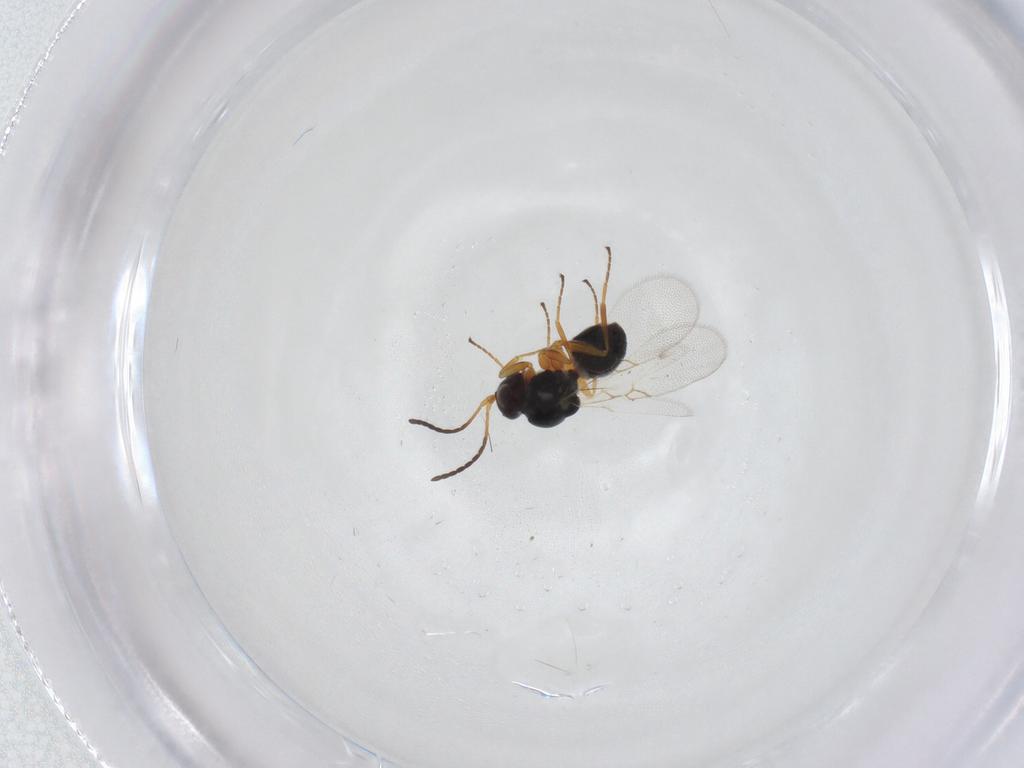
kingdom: Animalia
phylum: Arthropoda
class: Insecta
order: Hymenoptera
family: Figitidae
